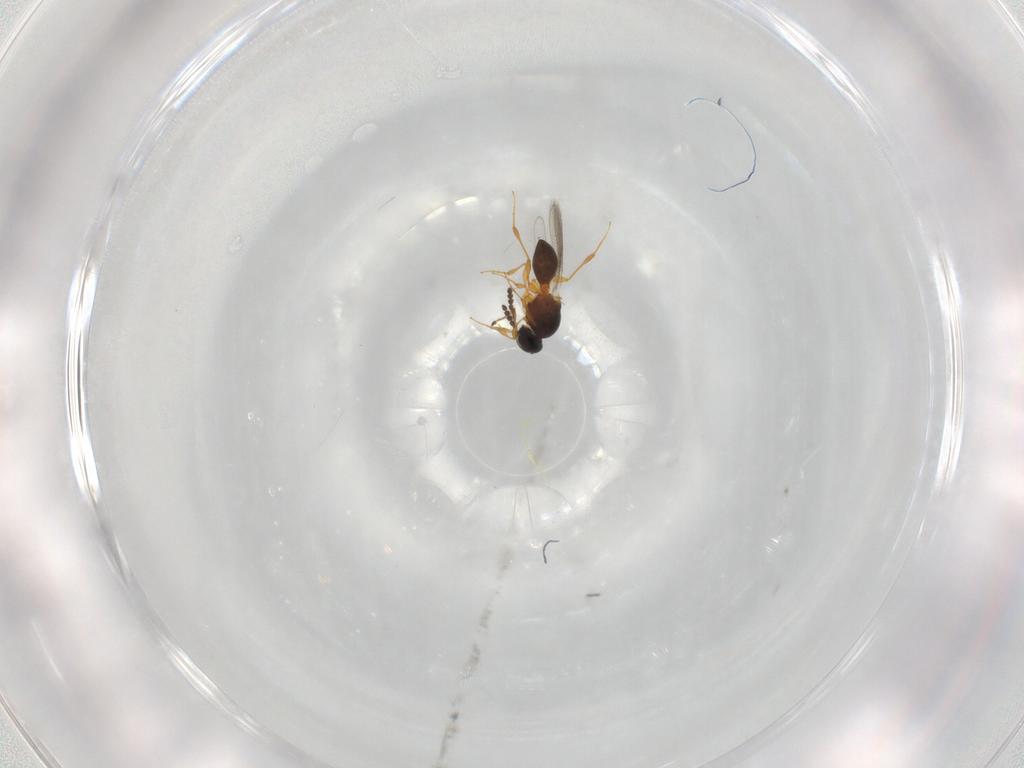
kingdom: Animalia
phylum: Arthropoda
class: Insecta
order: Hymenoptera
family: Platygastridae
